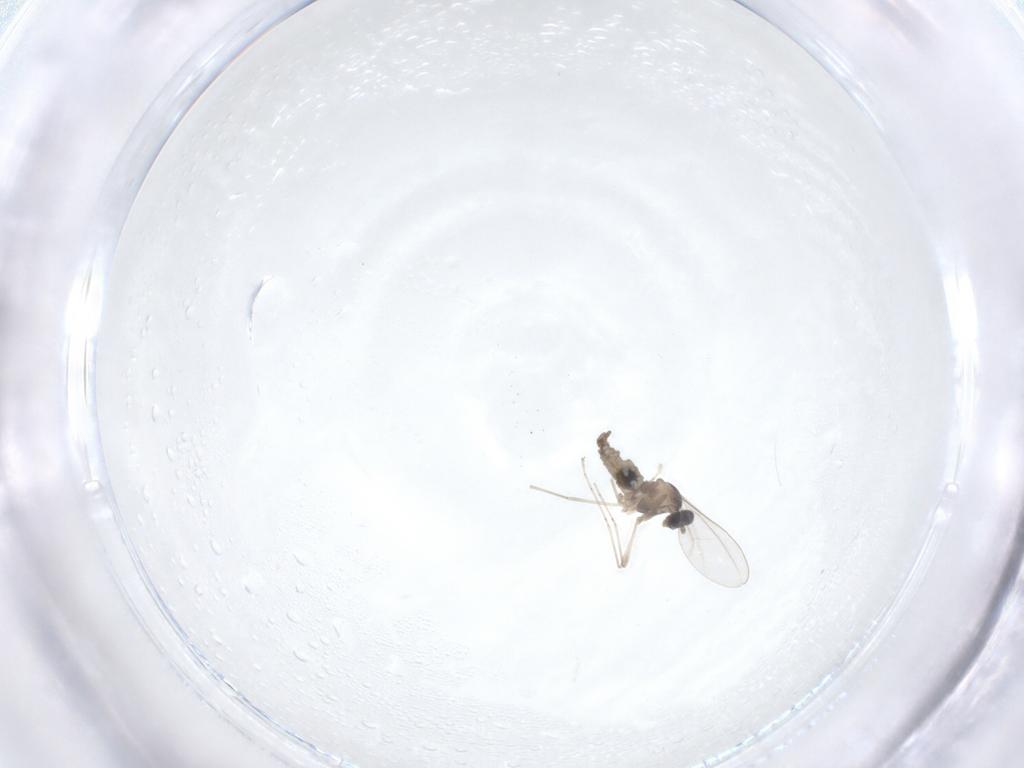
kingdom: Animalia
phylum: Arthropoda
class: Insecta
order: Diptera
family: Cecidomyiidae
